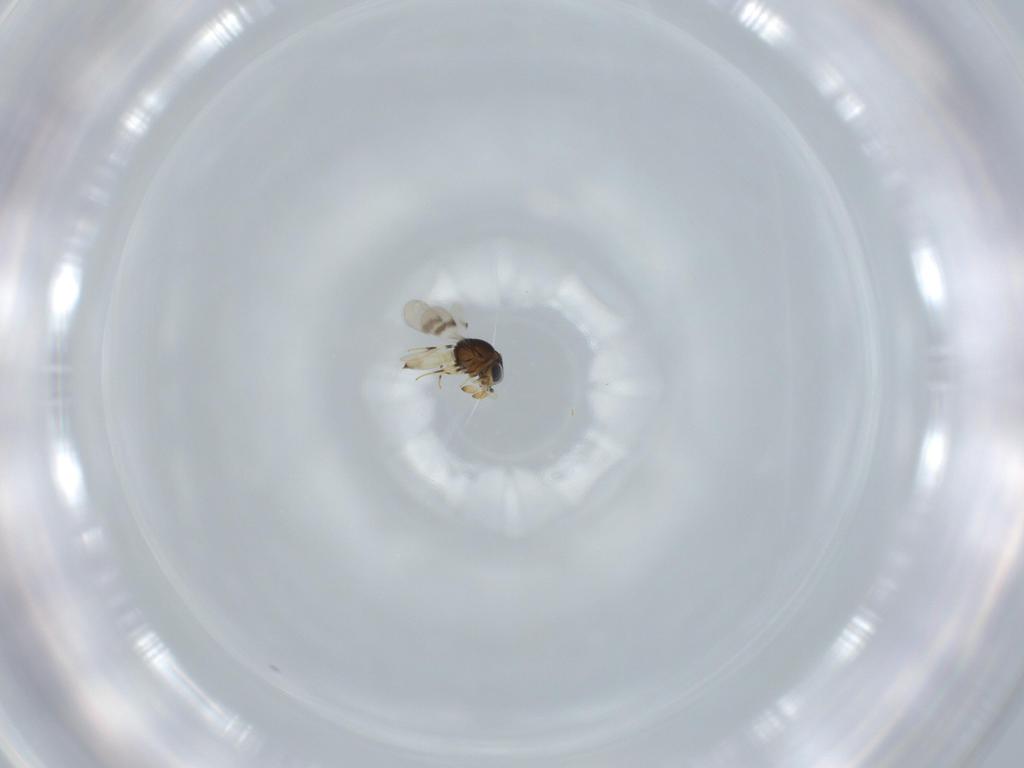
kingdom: Animalia
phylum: Arthropoda
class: Insecta
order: Hymenoptera
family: Scelionidae
